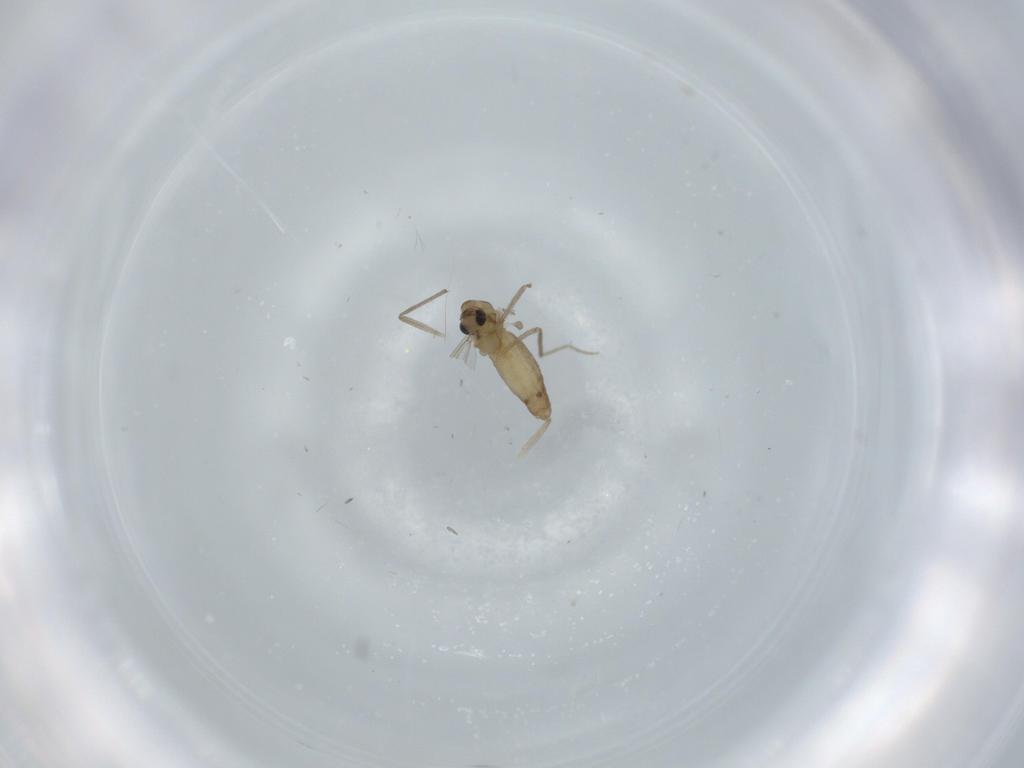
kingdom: Animalia
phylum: Arthropoda
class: Insecta
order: Diptera
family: Chironomidae
